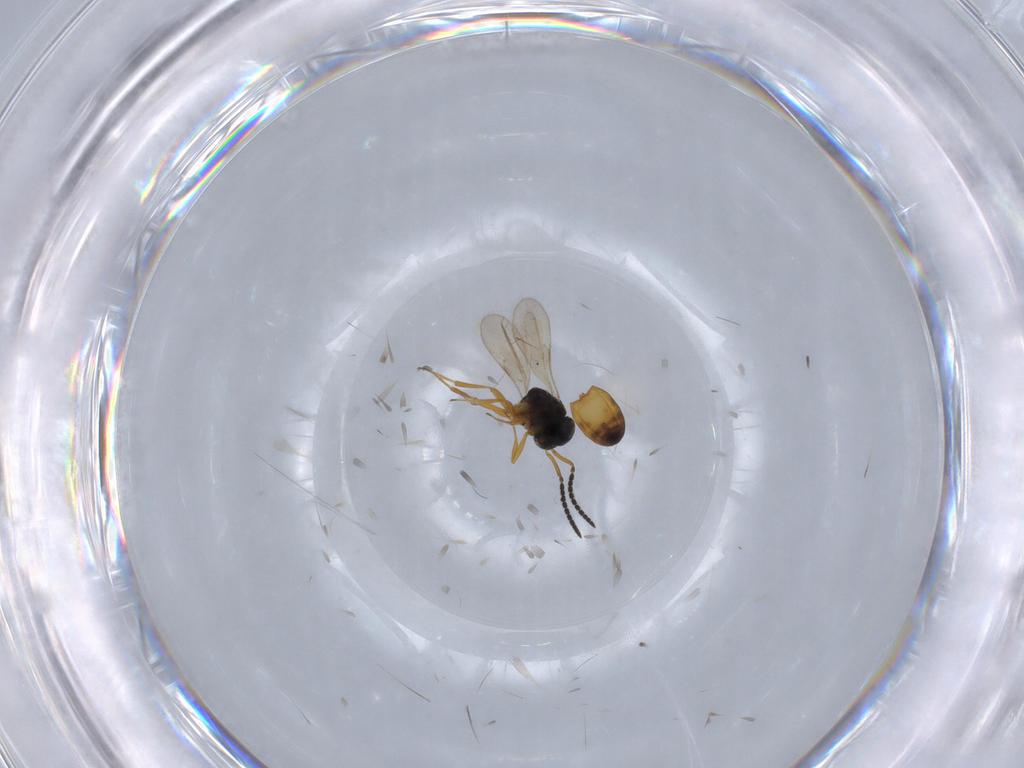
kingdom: Animalia
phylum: Arthropoda
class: Insecta
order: Hymenoptera
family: Scelionidae
